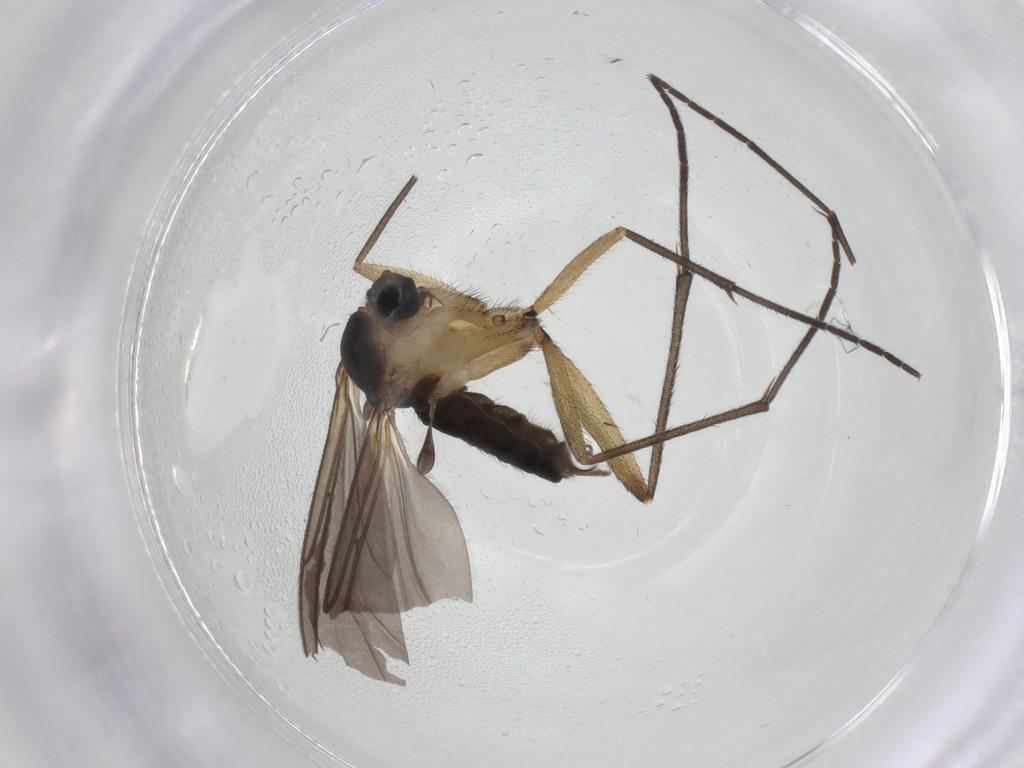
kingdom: Animalia
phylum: Arthropoda
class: Insecta
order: Diptera
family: Sciaridae
